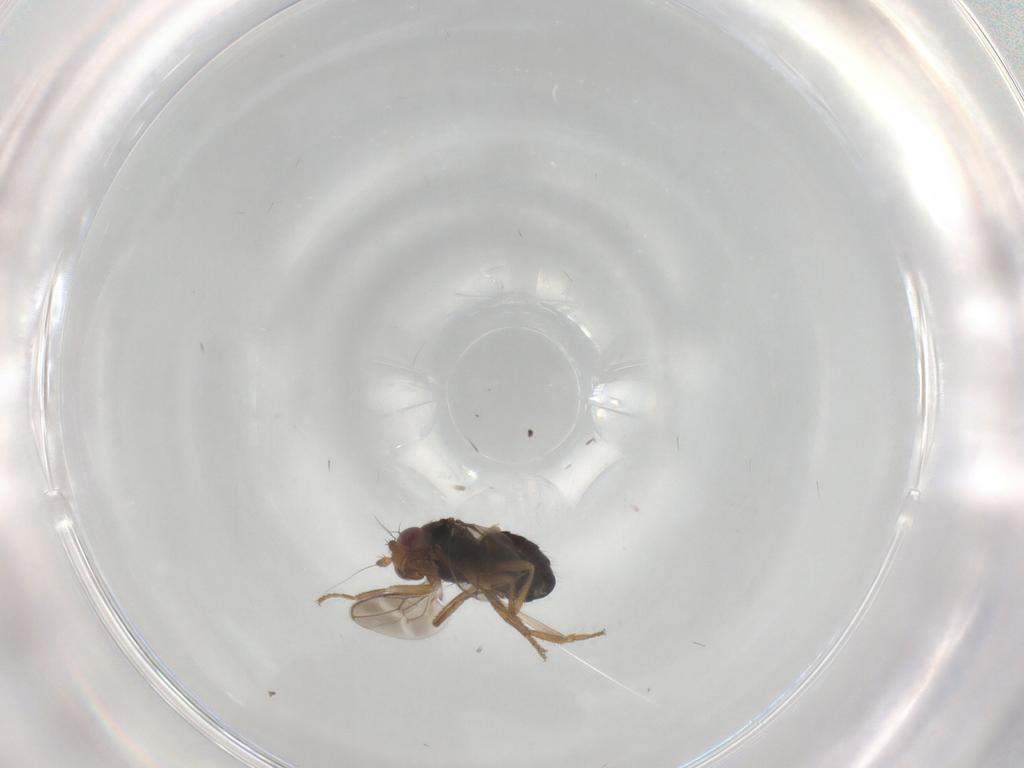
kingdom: Animalia
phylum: Arthropoda
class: Insecta
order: Diptera
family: Sphaeroceridae
